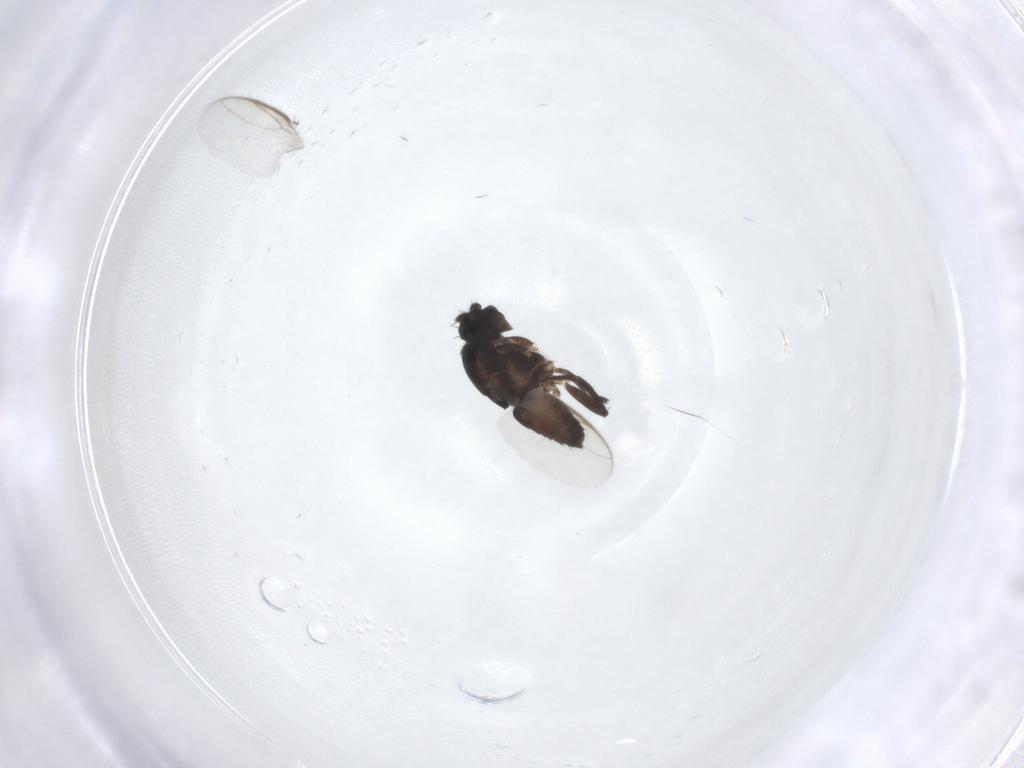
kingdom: Animalia
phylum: Arthropoda
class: Insecta
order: Diptera
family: Sphaeroceridae
